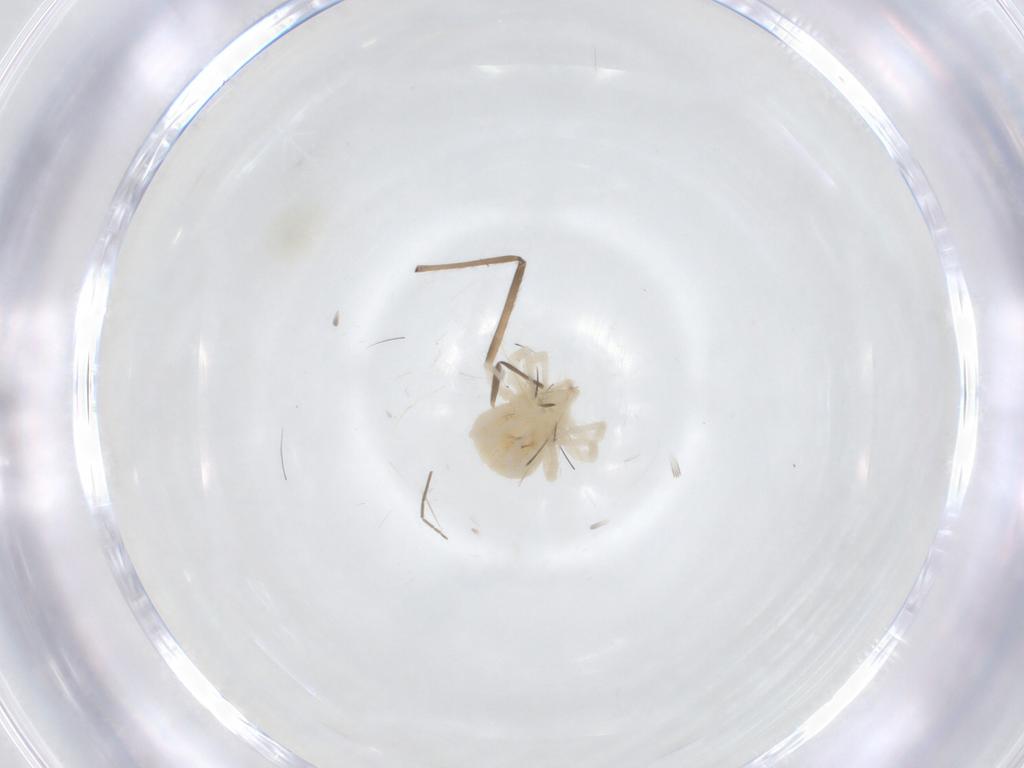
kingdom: Animalia
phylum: Arthropoda
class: Arachnida
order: Trombidiformes
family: Anystidae
